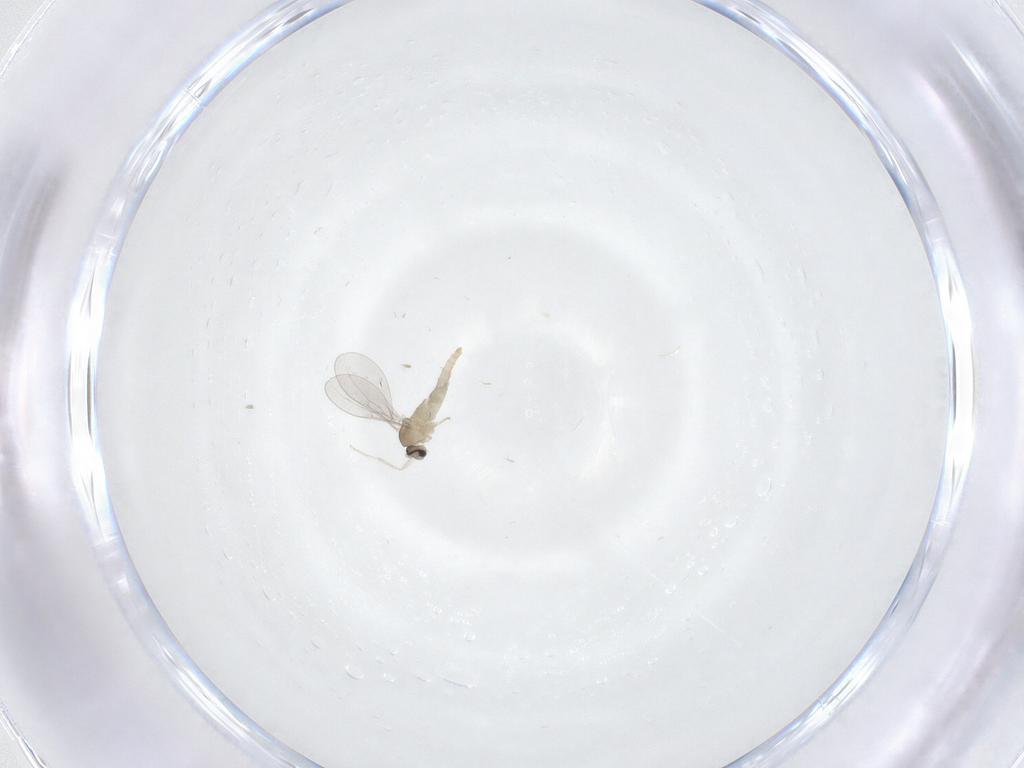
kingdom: Animalia
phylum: Arthropoda
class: Insecta
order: Diptera
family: Cecidomyiidae
